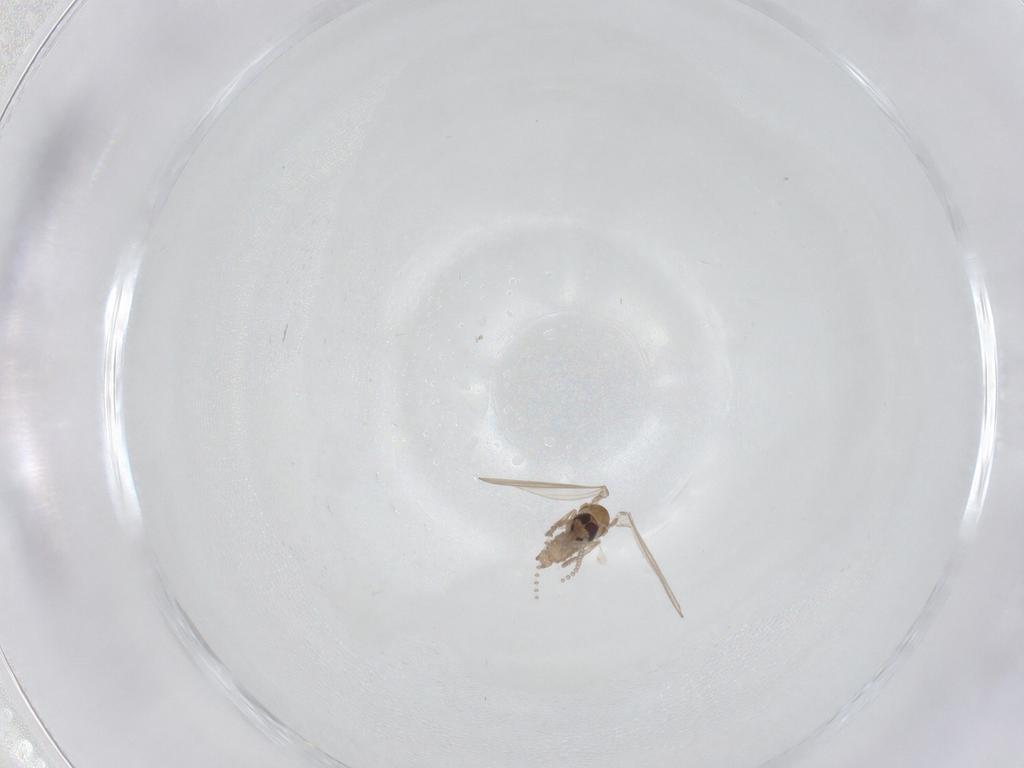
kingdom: Animalia
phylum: Arthropoda
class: Insecta
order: Diptera
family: Psychodidae
